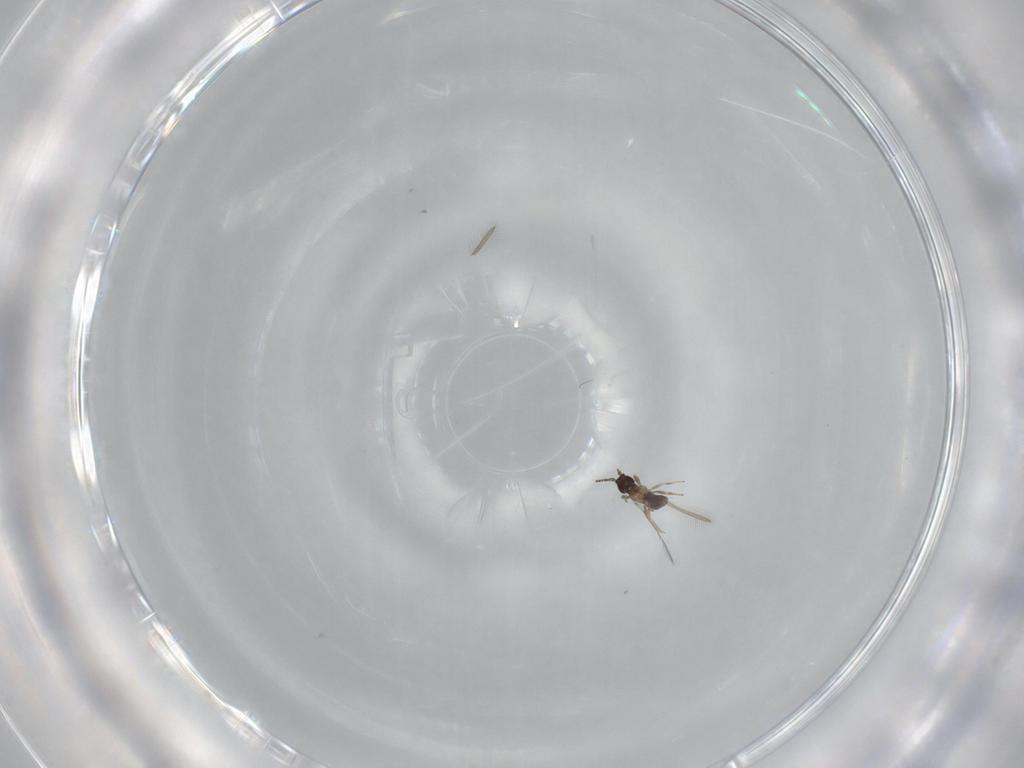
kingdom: Animalia
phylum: Arthropoda
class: Insecta
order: Hymenoptera
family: Mymaridae
